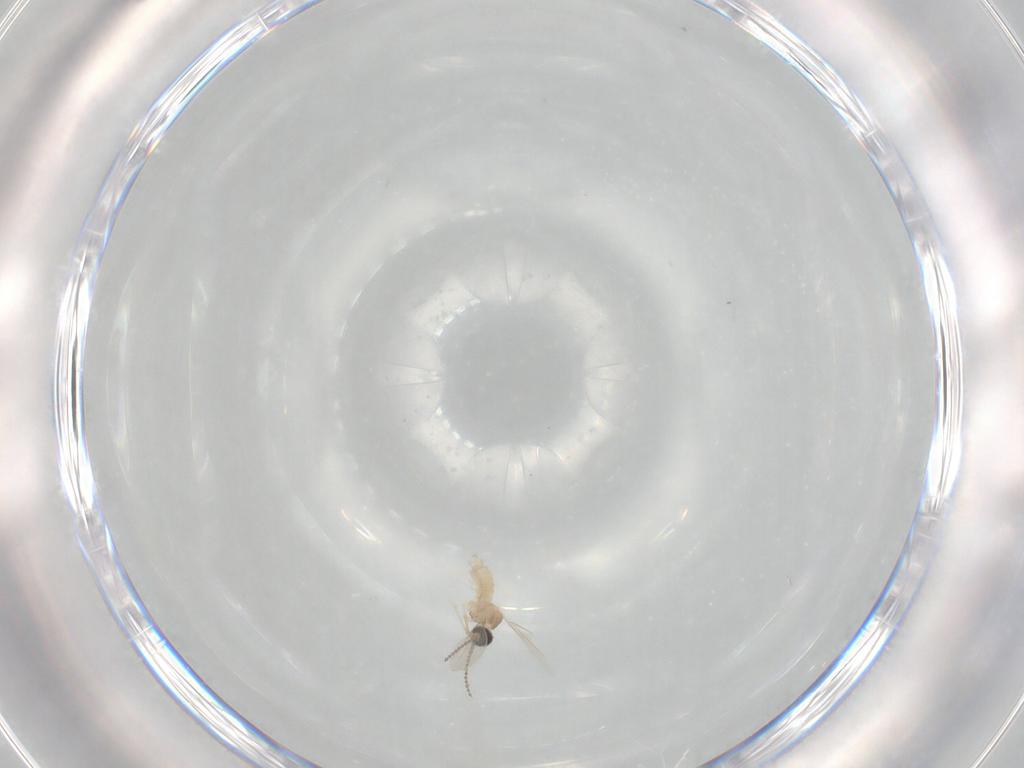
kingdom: Animalia
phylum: Arthropoda
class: Insecta
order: Diptera
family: Cecidomyiidae
